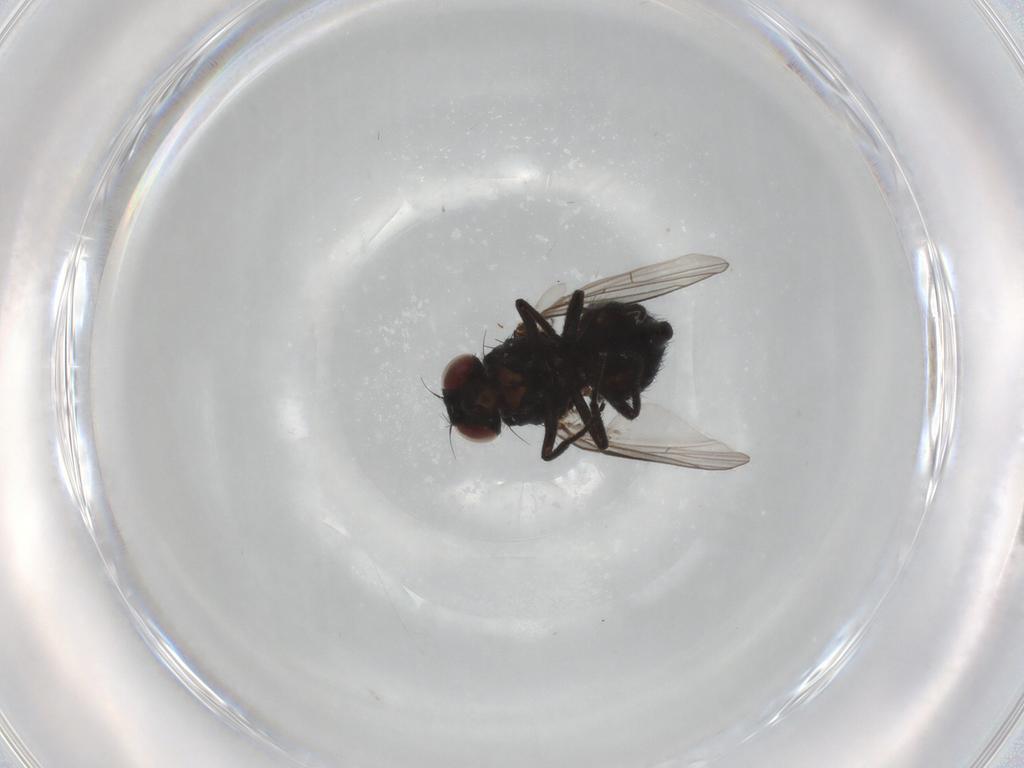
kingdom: Animalia
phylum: Arthropoda
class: Insecta
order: Diptera
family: Agromyzidae
